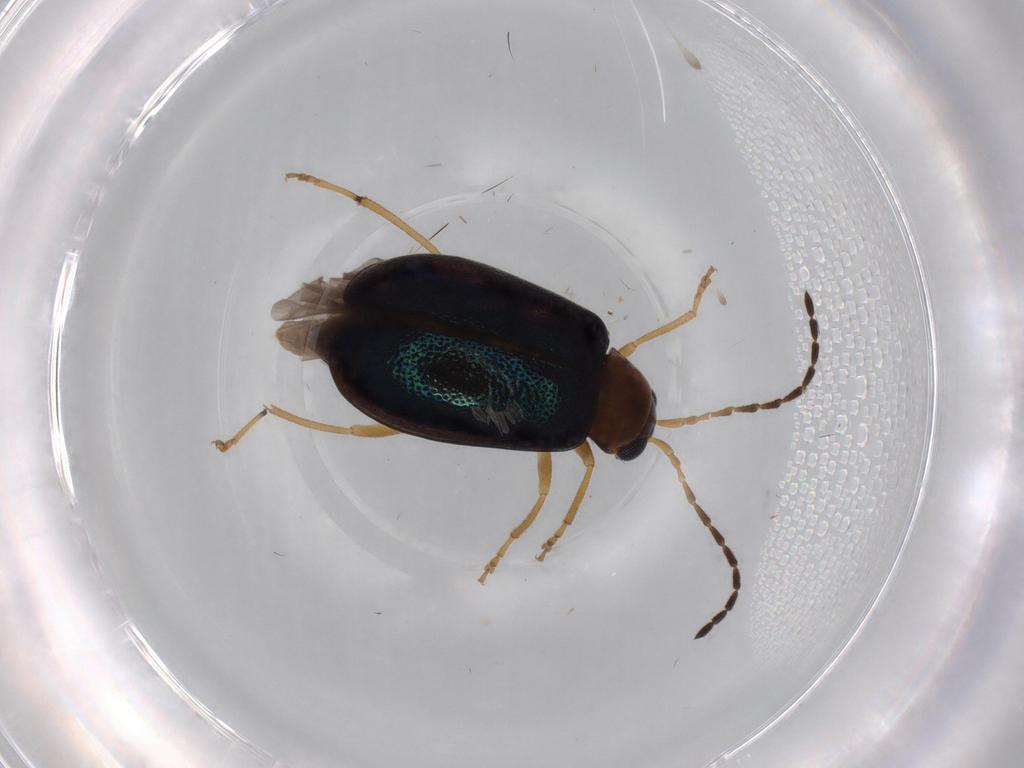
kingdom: Animalia
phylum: Arthropoda
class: Insecta
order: Coleoptera
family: Chrysomelidae
